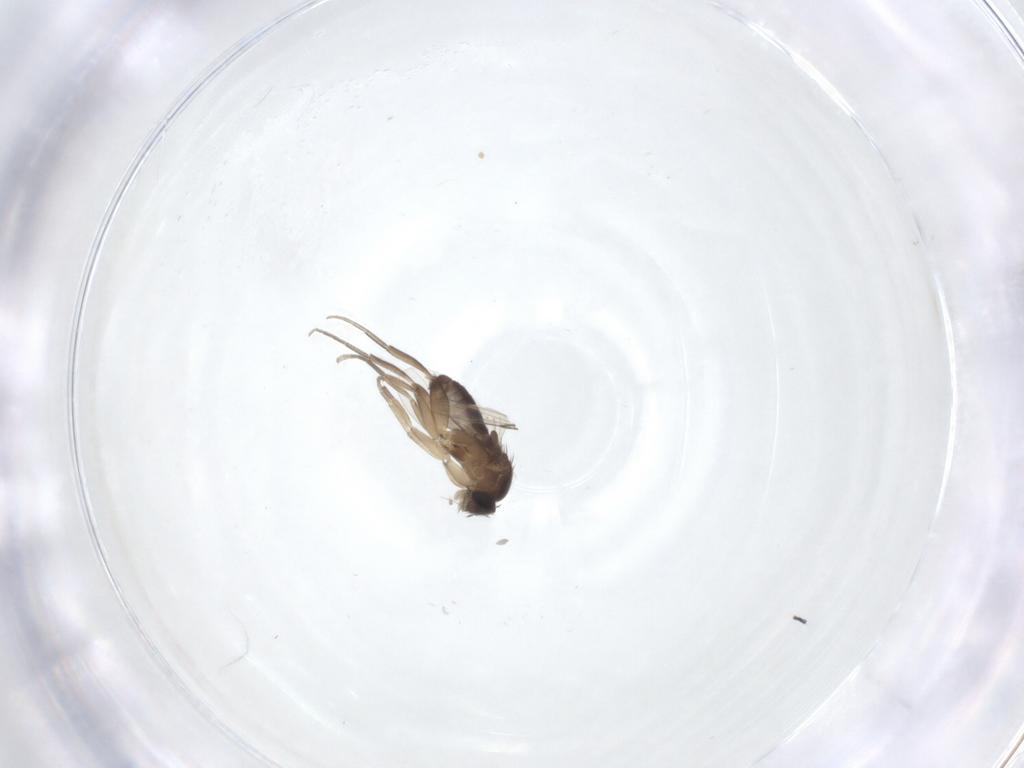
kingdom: Animalia
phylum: Arthropoda
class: Insecta
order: Diptera
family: Phoridae
